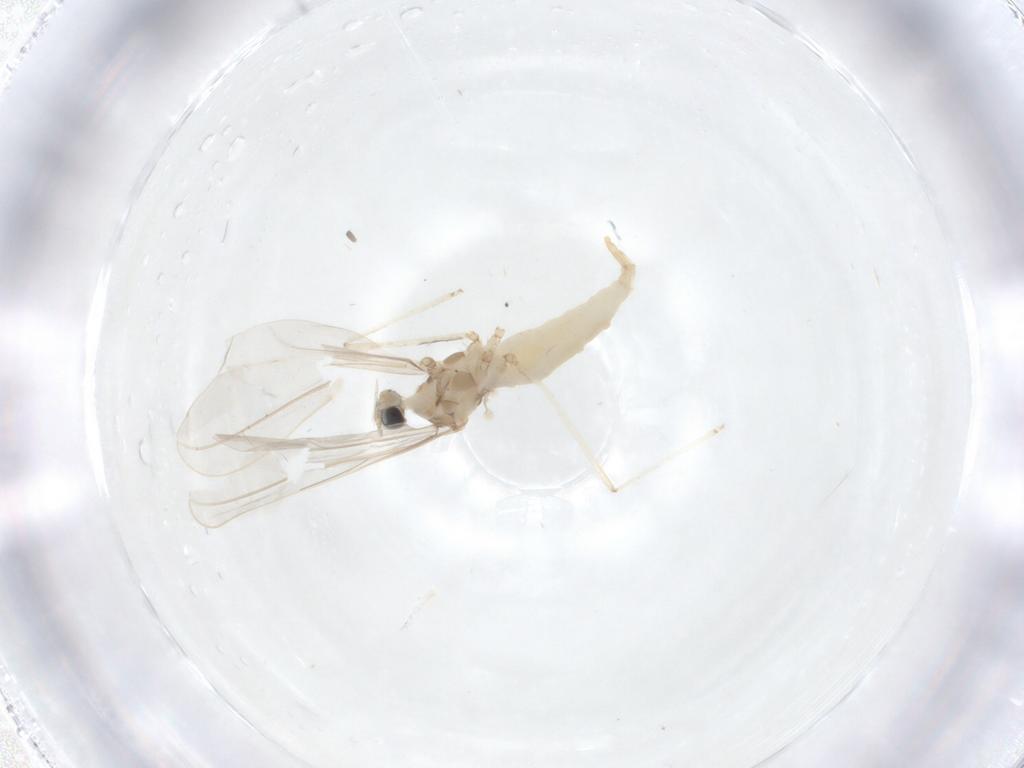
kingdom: Animalia
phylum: Arthropoda
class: Insecta
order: Diptera
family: Cecidomyiidae
